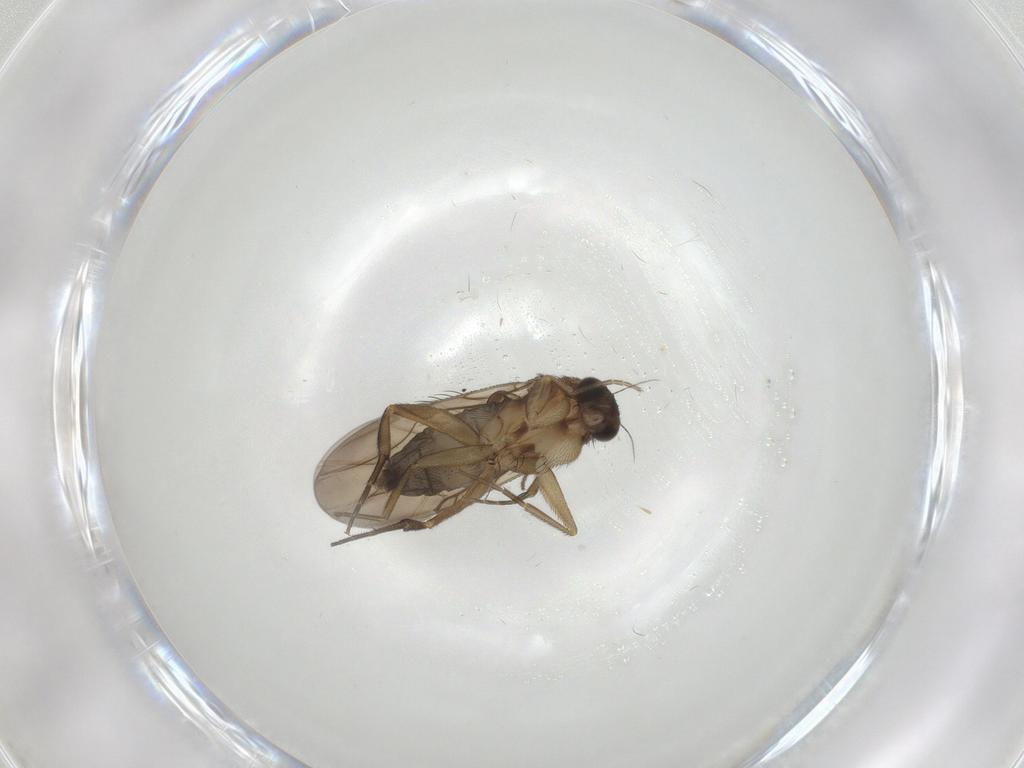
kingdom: Animalia
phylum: Arthropoda
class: Insecta
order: Diptera
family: Phoridae
